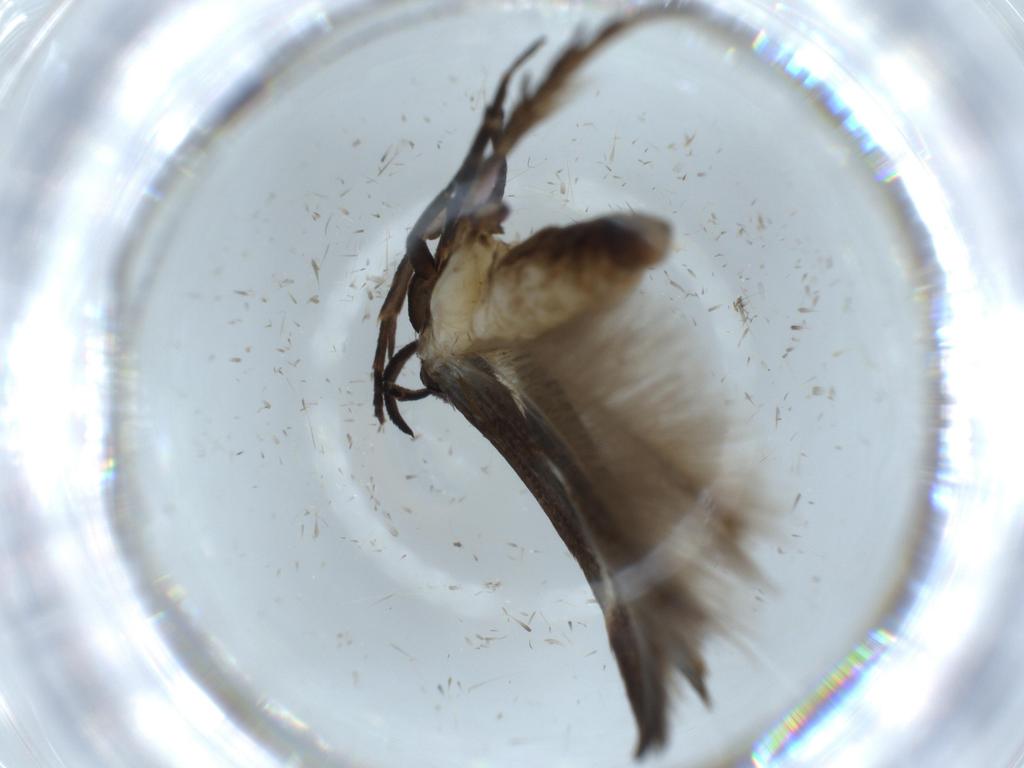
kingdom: Animalia
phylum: Arthropoda
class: Insecta
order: Lepidoptera
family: Cosmopterigidae
